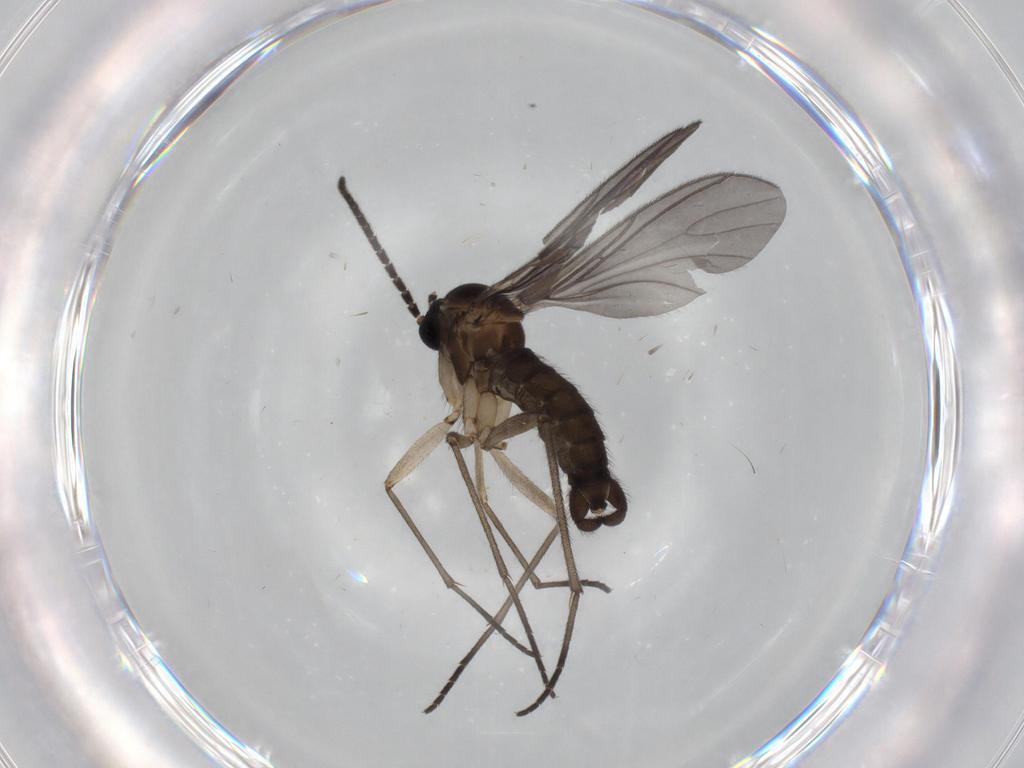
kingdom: Animalia
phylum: Arthropoda
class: Insecta
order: Diptera
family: Sciaridae
